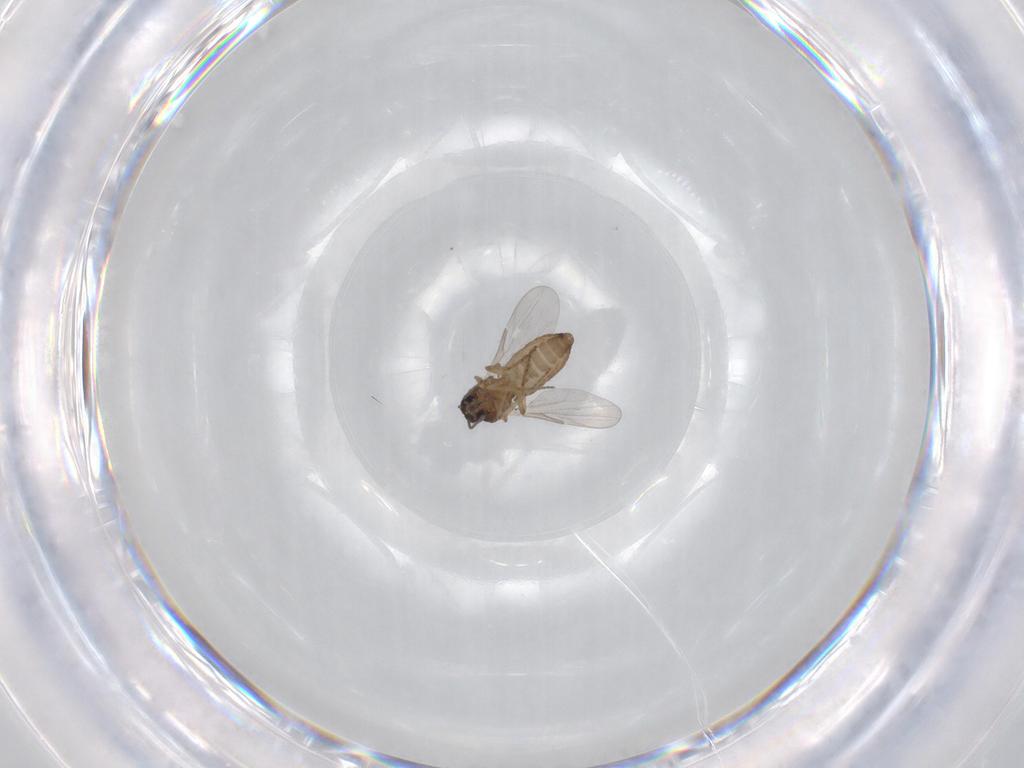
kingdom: Animalia
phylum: Arthropoda
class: Insecta
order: Diptera
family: Ceratopogonidae
